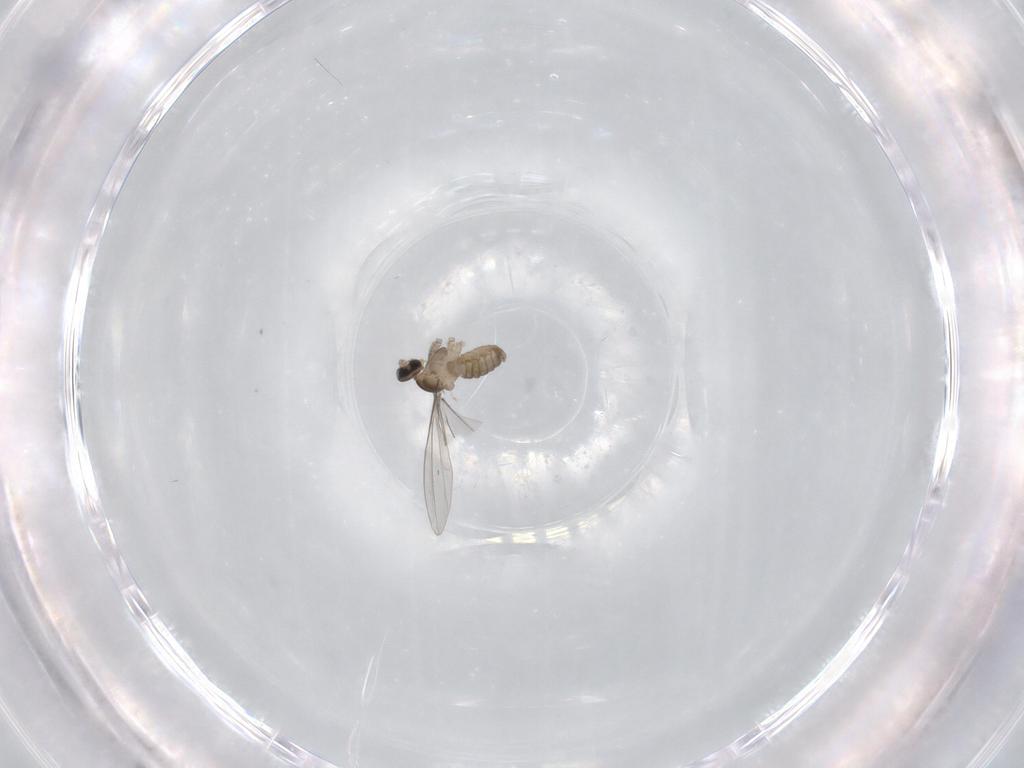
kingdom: Animalia
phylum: Arthropoda
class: Insecta
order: Diptera
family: Cecidomyiidae
